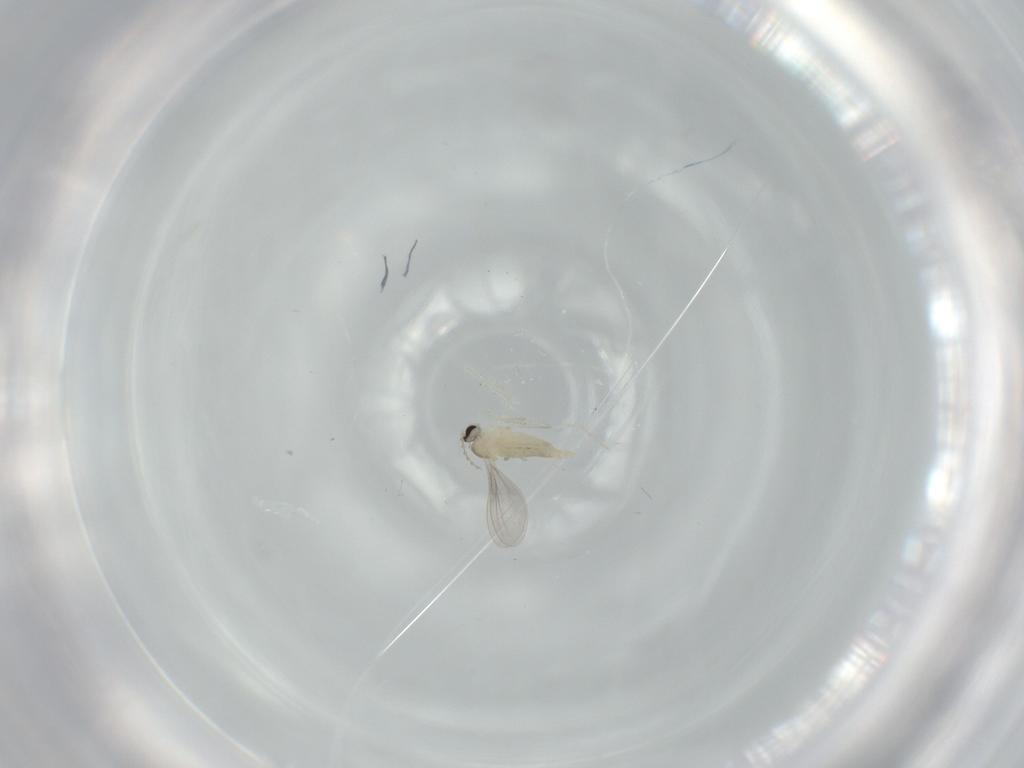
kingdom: Animalia
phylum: Arthropoda
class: Insecta
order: Diptera
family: Cecidomyiidae
